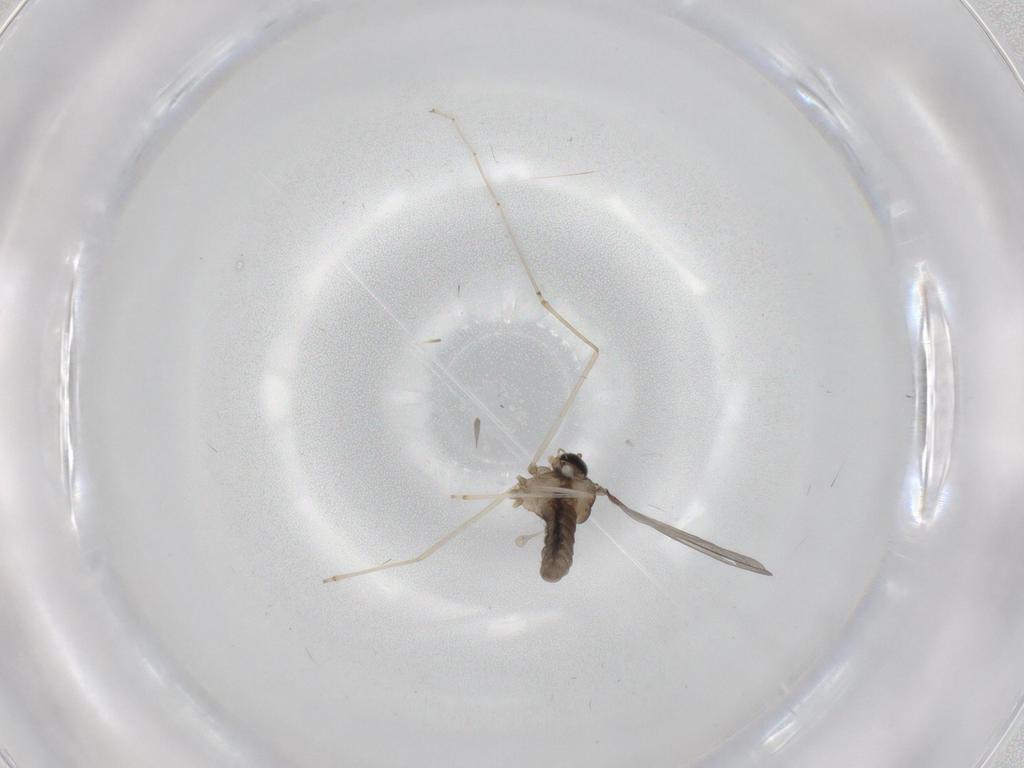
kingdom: Animalia
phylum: Arthropoda
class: Insecta
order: Diptera
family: Cecidomyiidae
